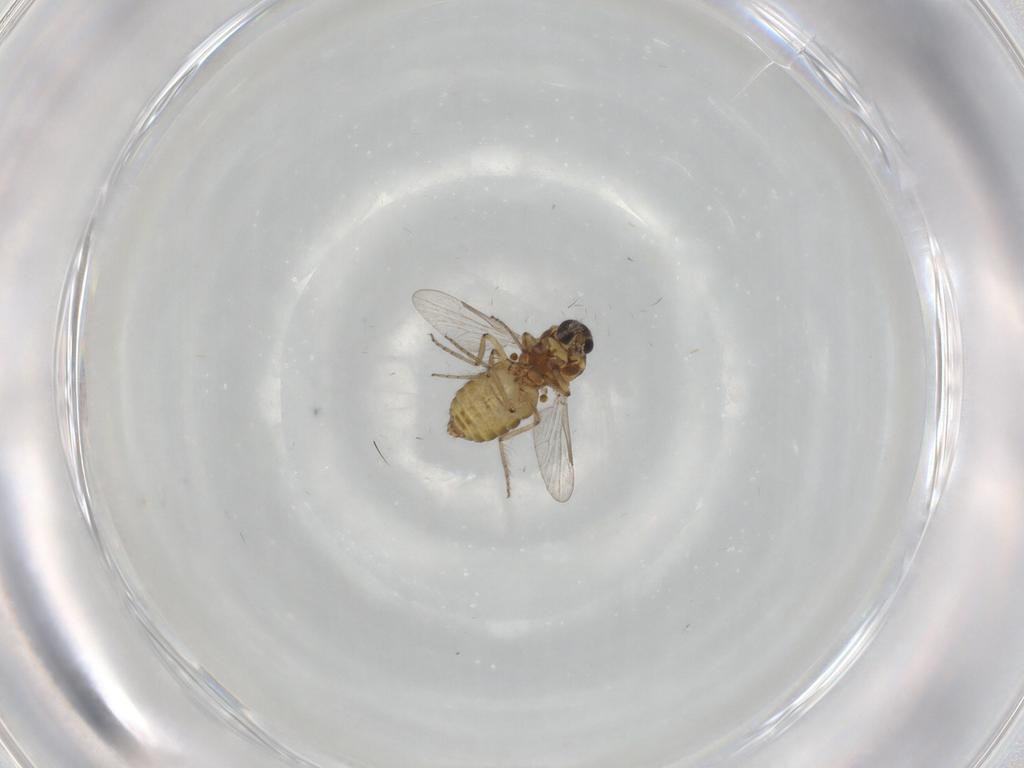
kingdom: Animalia
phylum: Arthropoda
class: Insecta
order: Diptera
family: Ceratopogonidae
